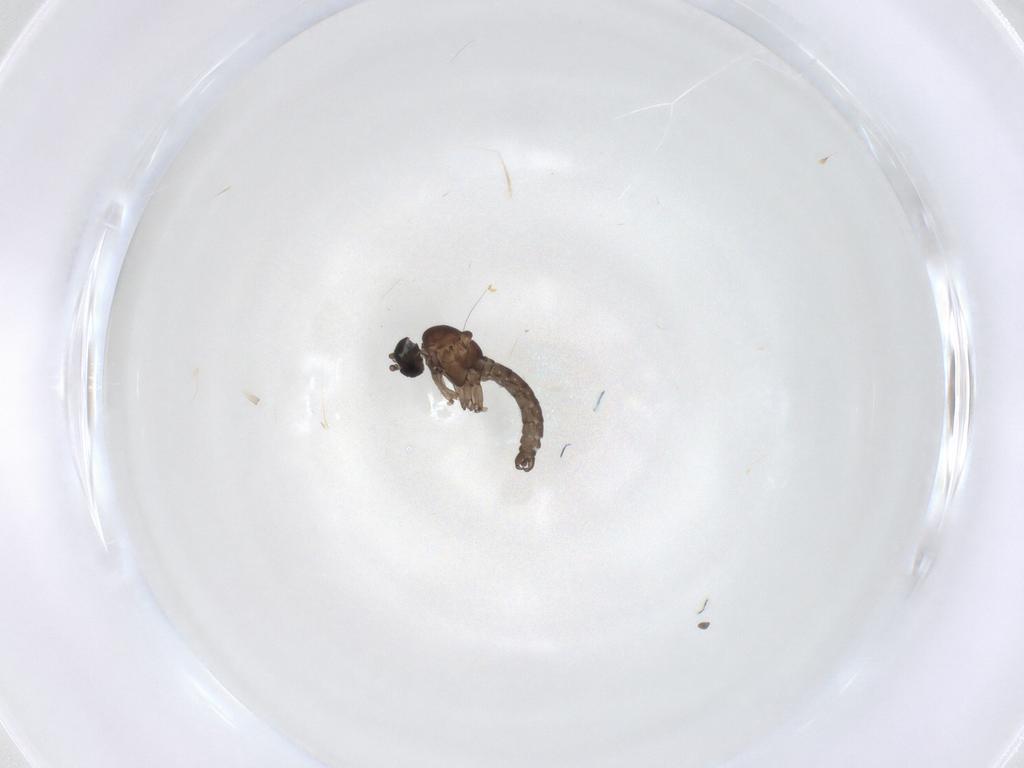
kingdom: Animalia
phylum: Arthropoda
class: Insecta
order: Diptera
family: Sciaridae
